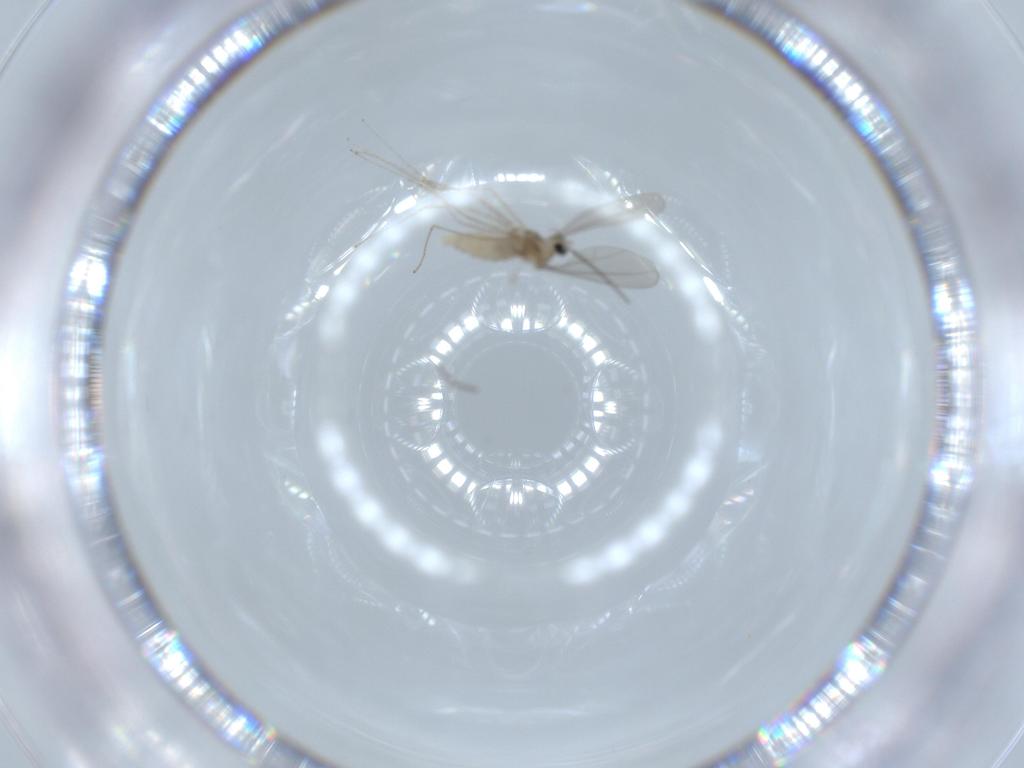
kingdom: Animalia
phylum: Arthropoda
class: Insecta
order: Diptera
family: Cecidomyiidae
